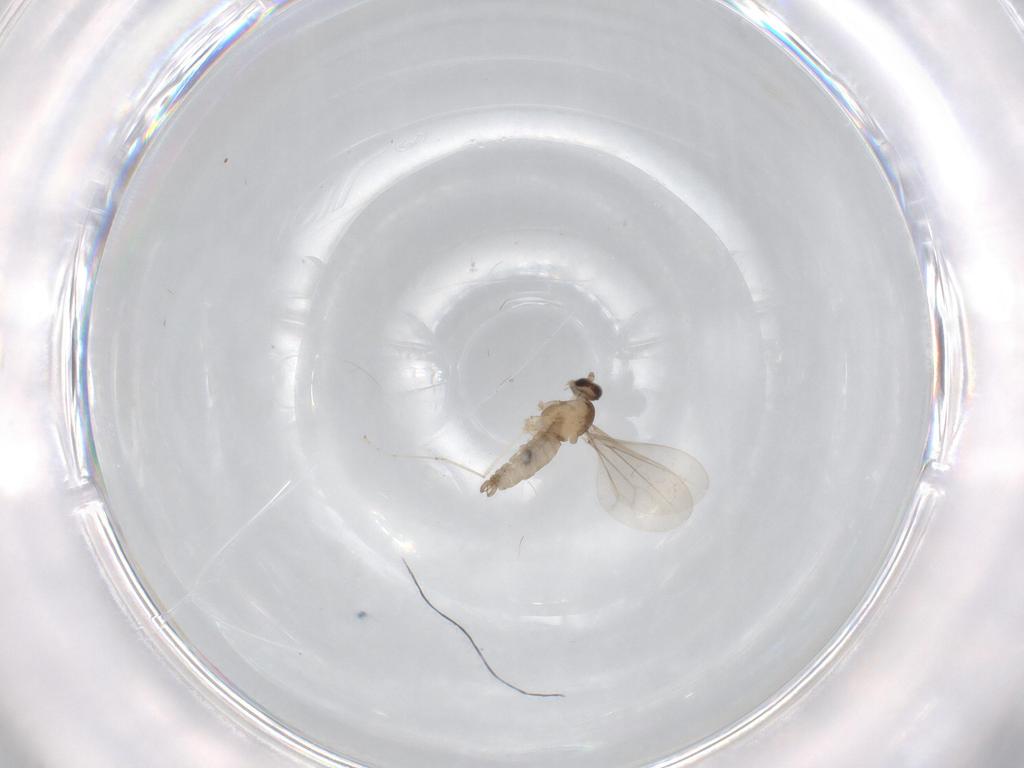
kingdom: Animalia
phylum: Arthropoda
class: Insecta
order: Diptera
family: Cecidomyiidae
